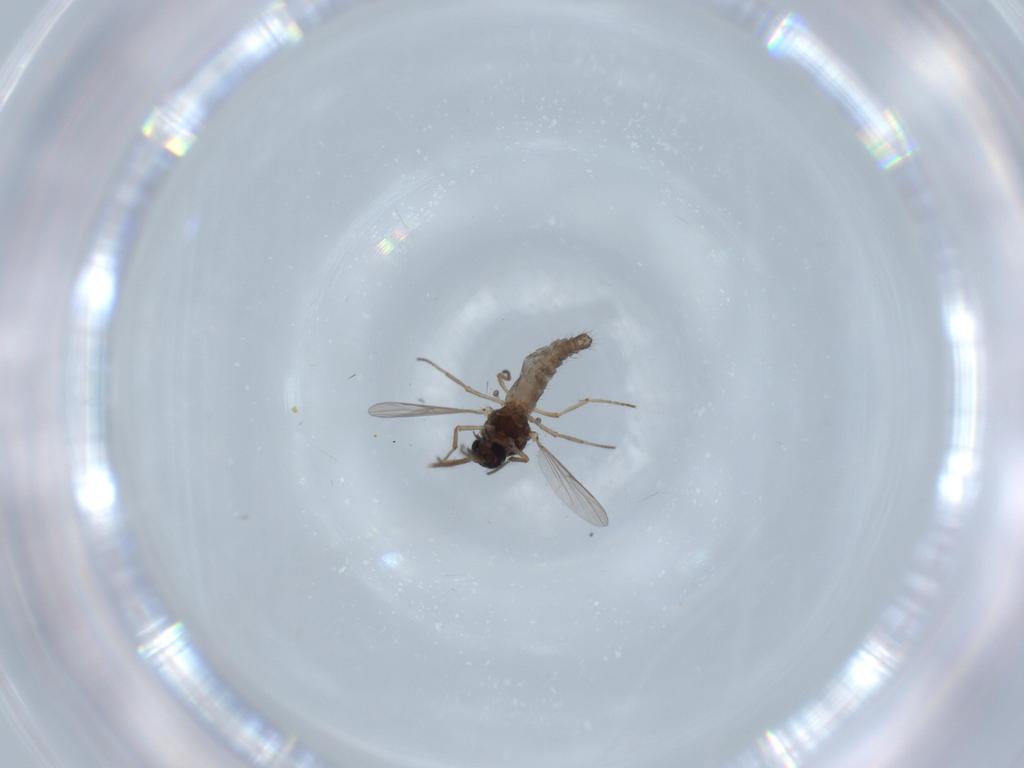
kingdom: Animalia
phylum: Arthropoda
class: Insecta
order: Diptera
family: Ceratopogonidae
